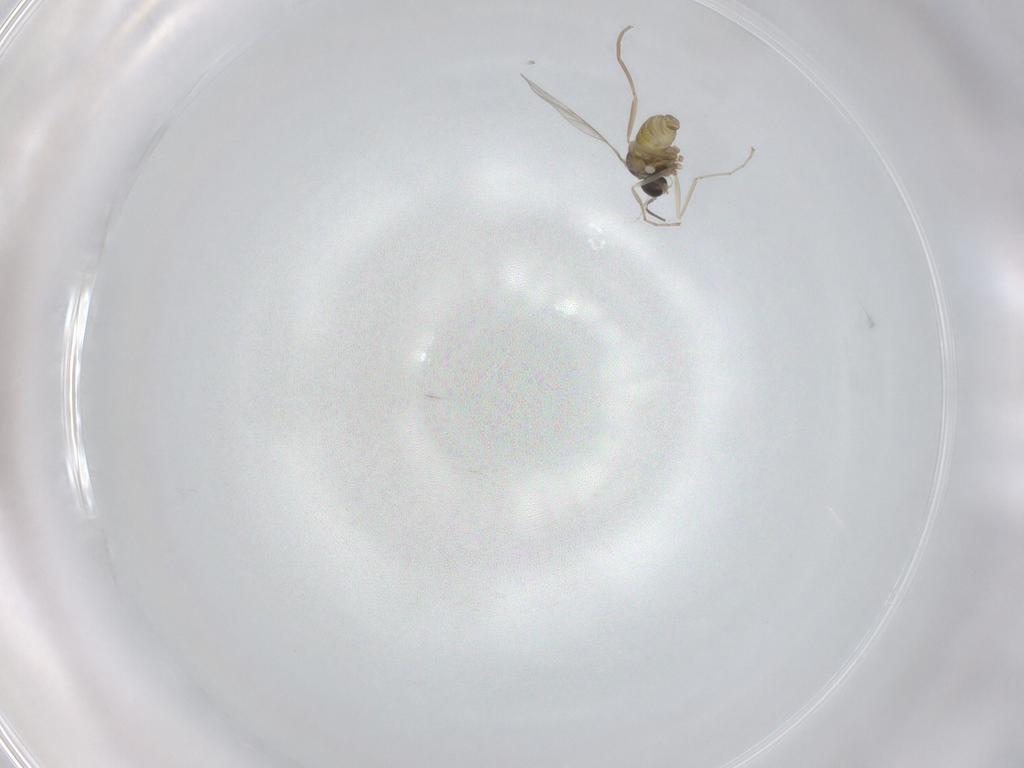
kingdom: Animalia
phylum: Arthropoda
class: Insecta
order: Diptera
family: Cecidomyiidae
